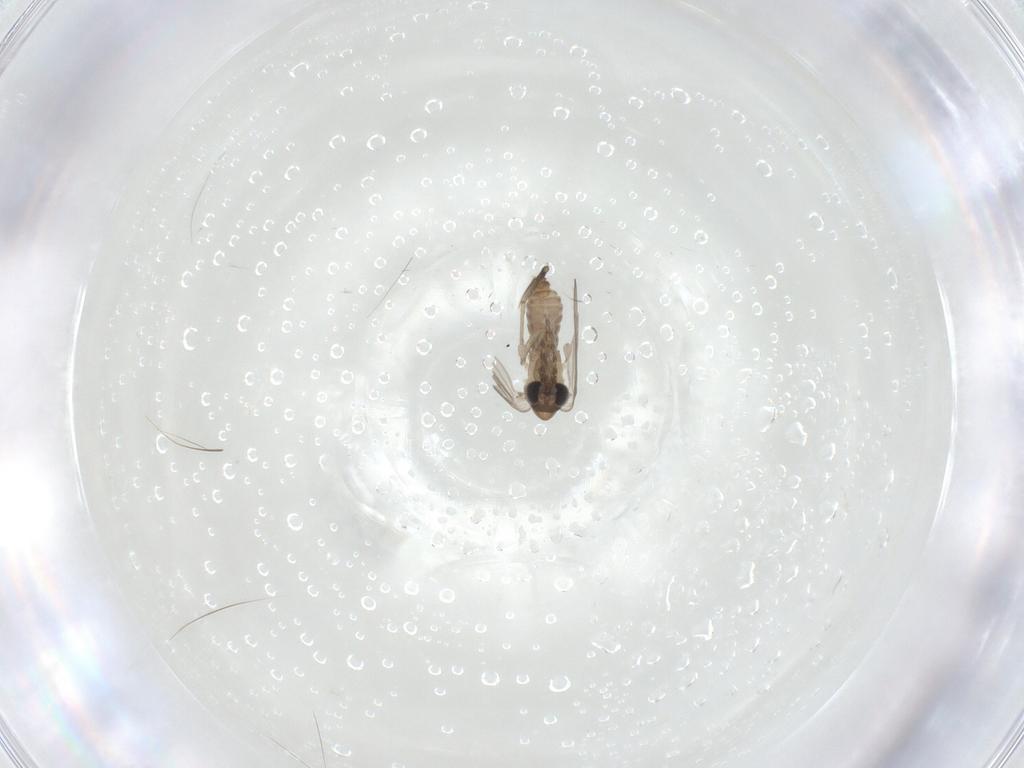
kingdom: Animalia
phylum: Arthropoda
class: Insecta
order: Diptera
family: Psychodidae
